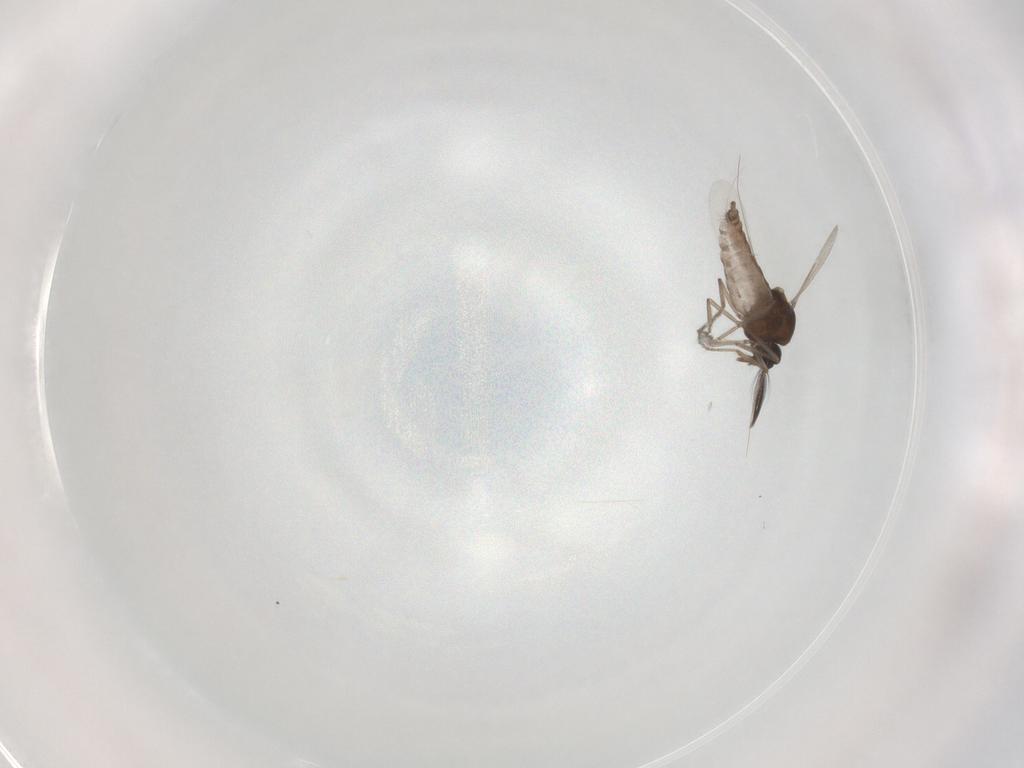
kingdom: Animalia
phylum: Arthropoda
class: Insecta
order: Diptera
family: Ceratopogonidae
